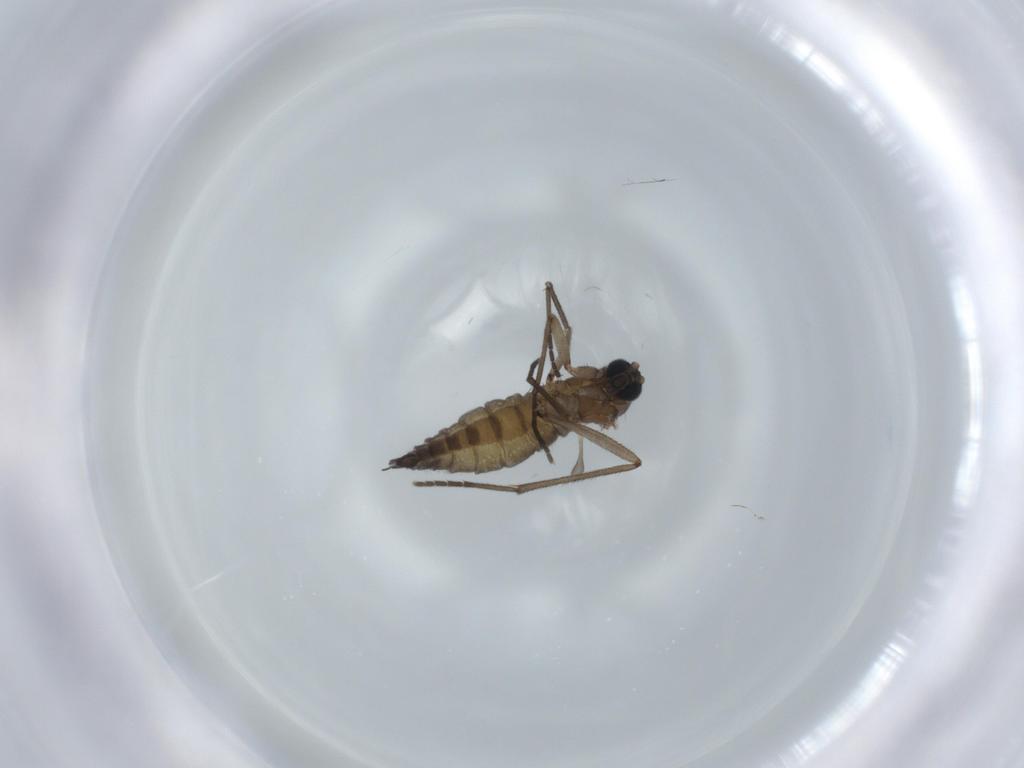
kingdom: Animalia
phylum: Arthropoda
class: Insecta
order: Diptera
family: Sciaridae
